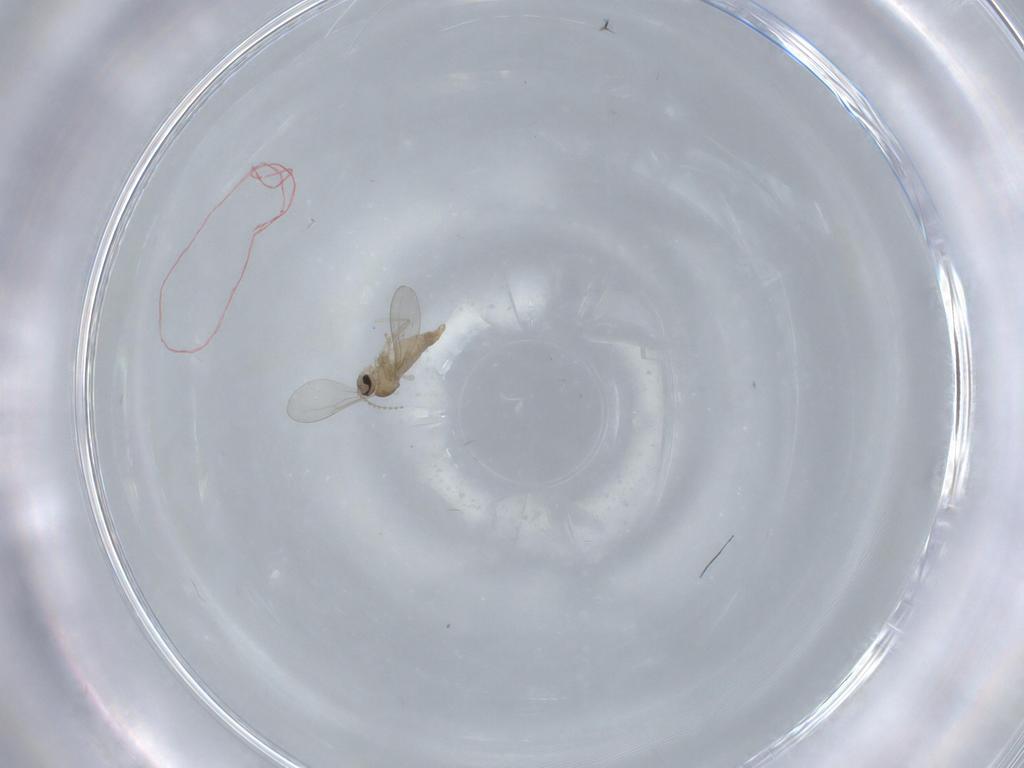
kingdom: Animalia
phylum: Arthropoda
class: Insecta
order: Diptera
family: Cecidomyiidae
